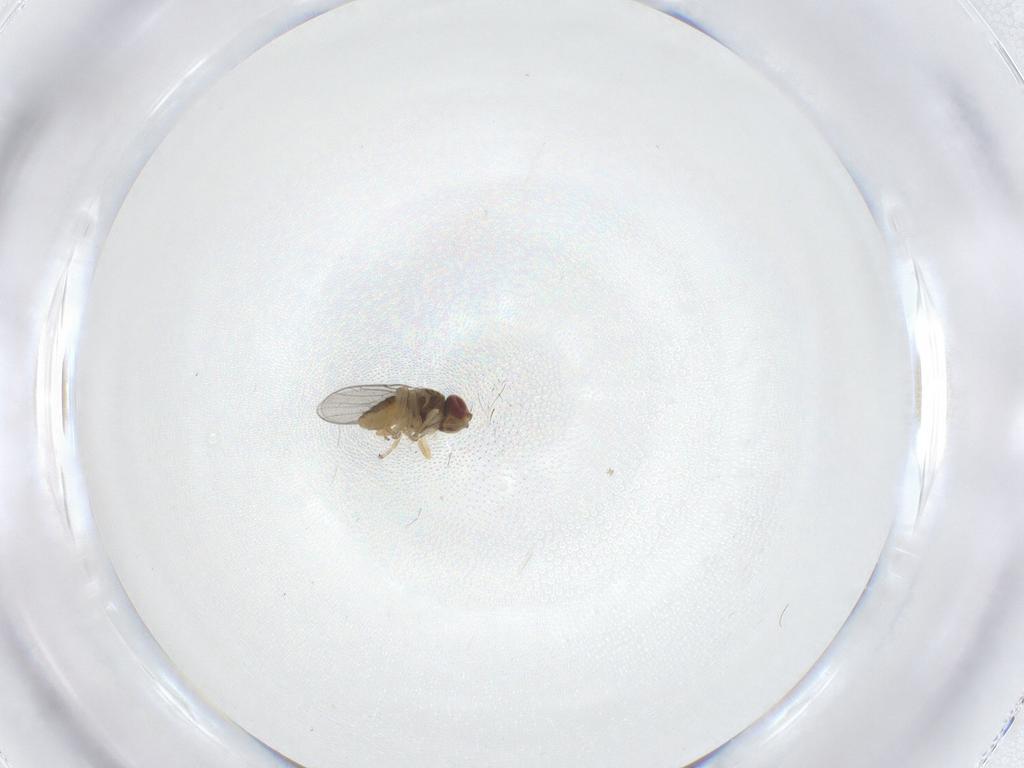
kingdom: Animalia
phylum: Arthropoda
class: Insecta
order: Diptera
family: Chloropidae
